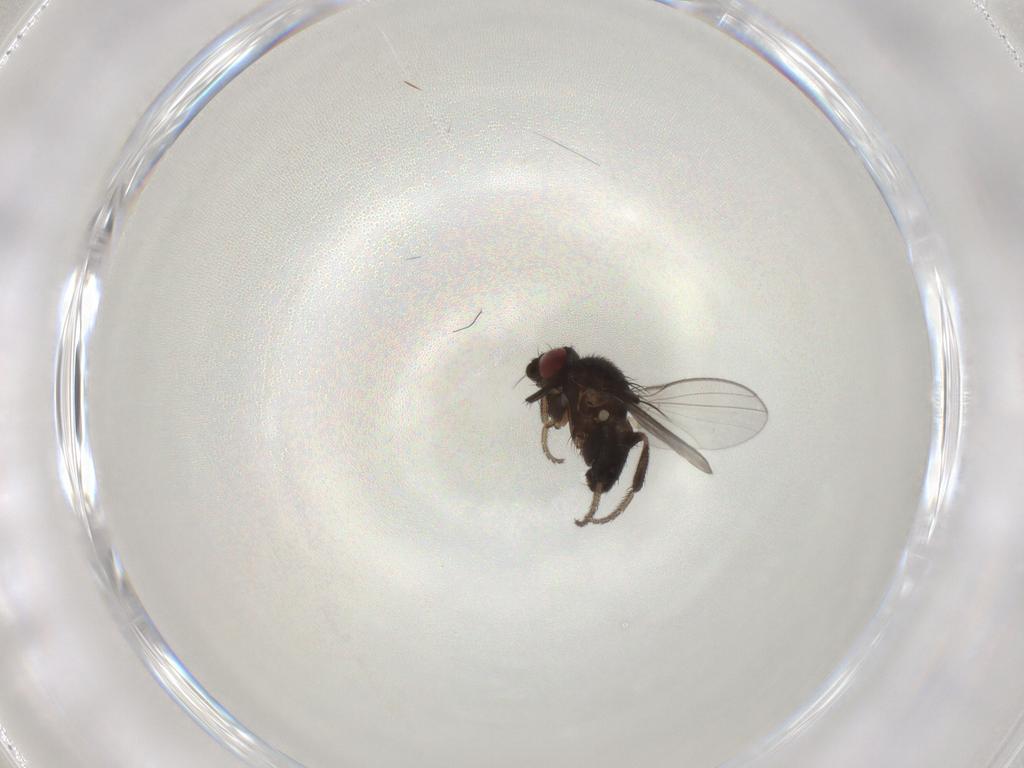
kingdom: Animalia
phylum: Arthropoda
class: Insecta
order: Diptera
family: Milichiidae
